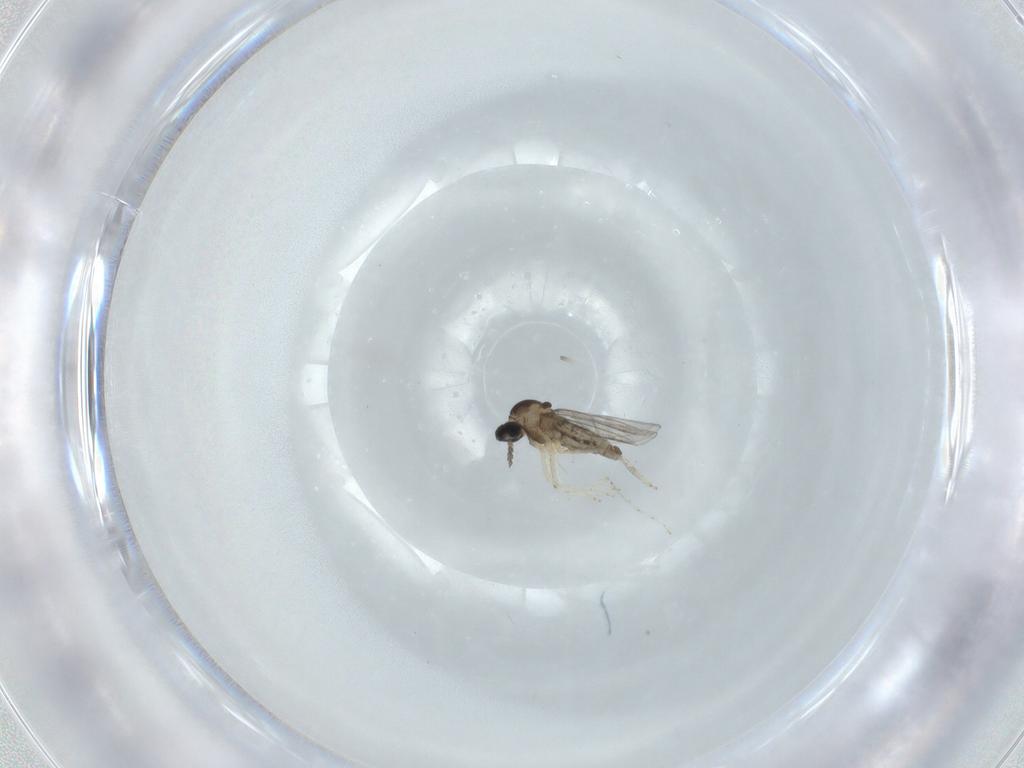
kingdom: Animalia
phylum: Arthropoda
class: Insecta
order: Diptera
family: Cecidomyiidae
